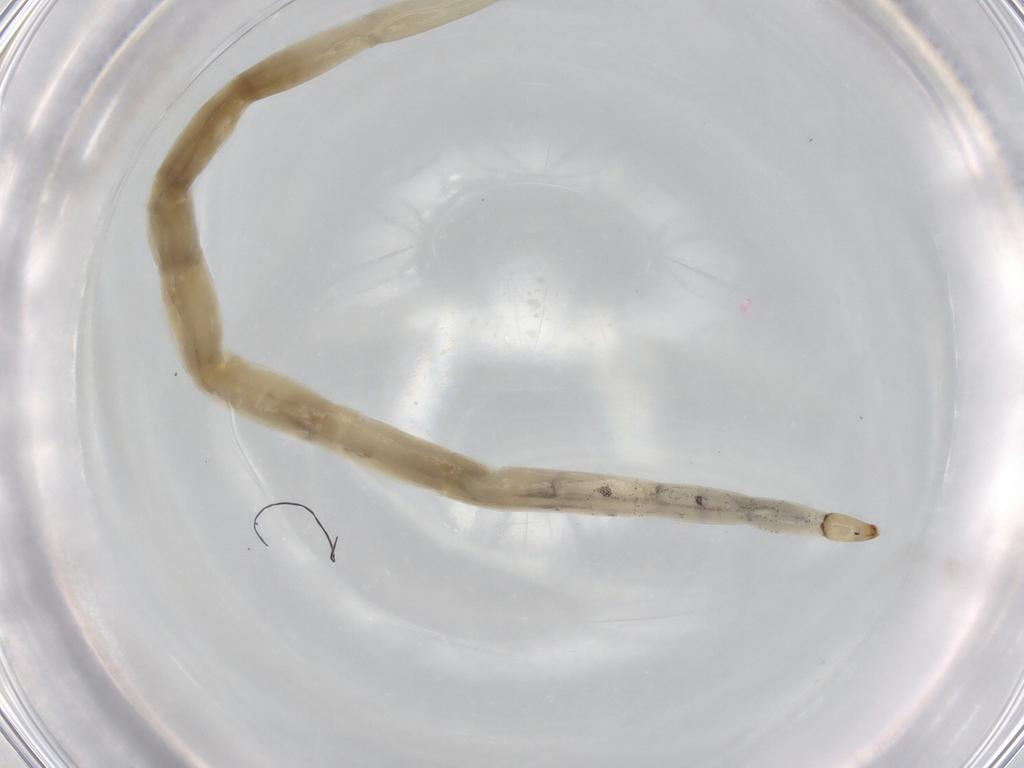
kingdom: Animalia
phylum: Arthropoda
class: Insecta
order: Diptera
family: Ceratopogonidae
